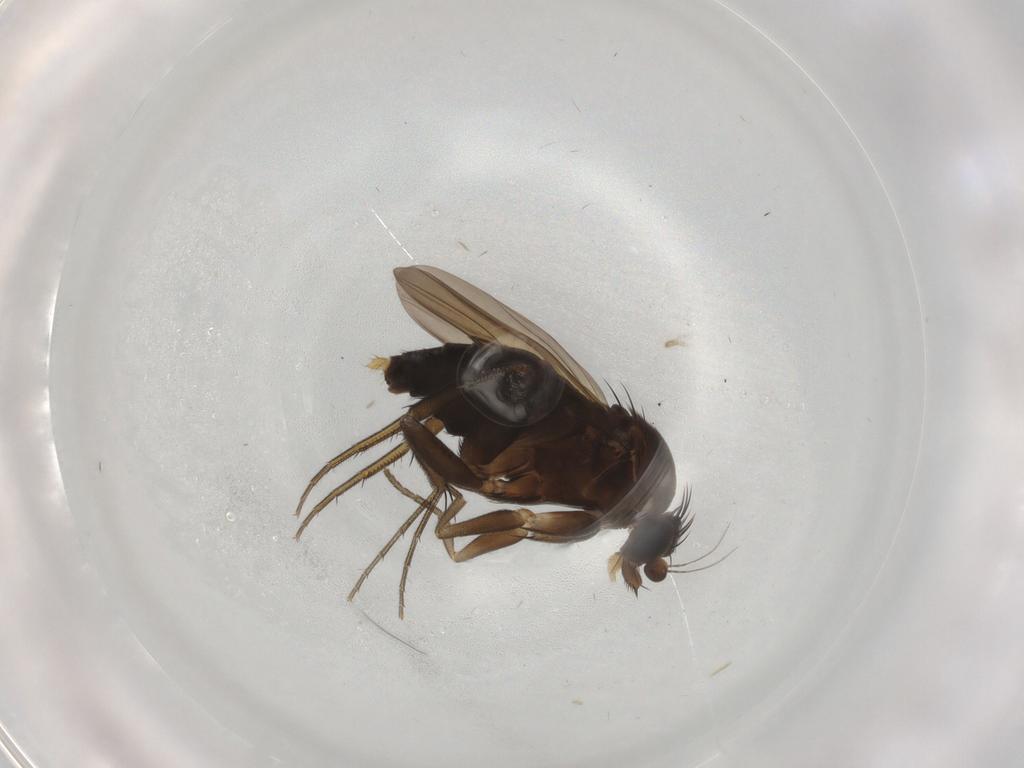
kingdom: Animalia
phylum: Arthropoda
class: Insecta
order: Diptera
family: Phoridae
